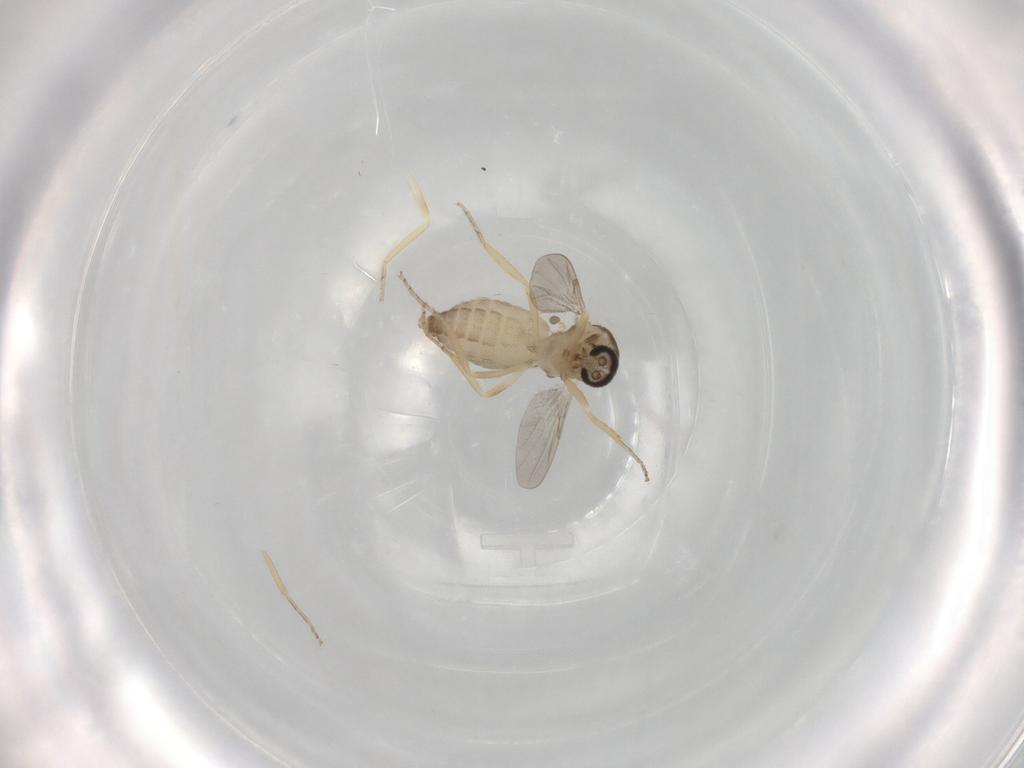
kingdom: Animalia
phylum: Arthropoda
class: Insecta
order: Diptera
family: Ceratopogonidae
